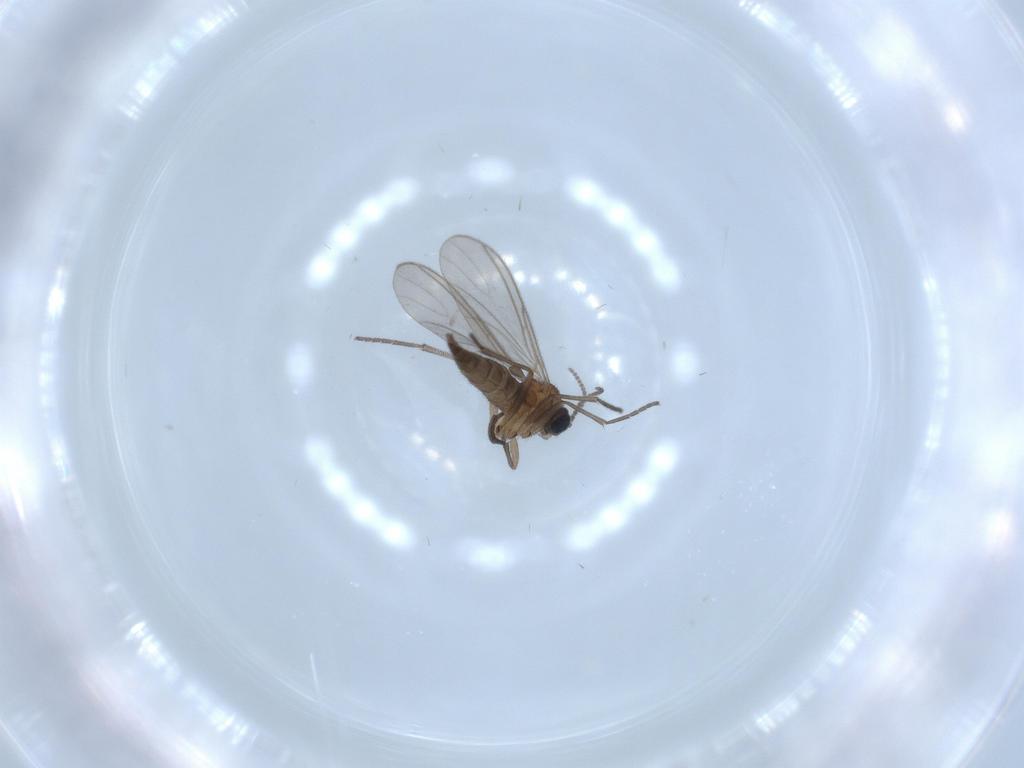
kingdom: Animalia
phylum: Arthropoda
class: Insecta
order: Diptera
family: Sciaridae
